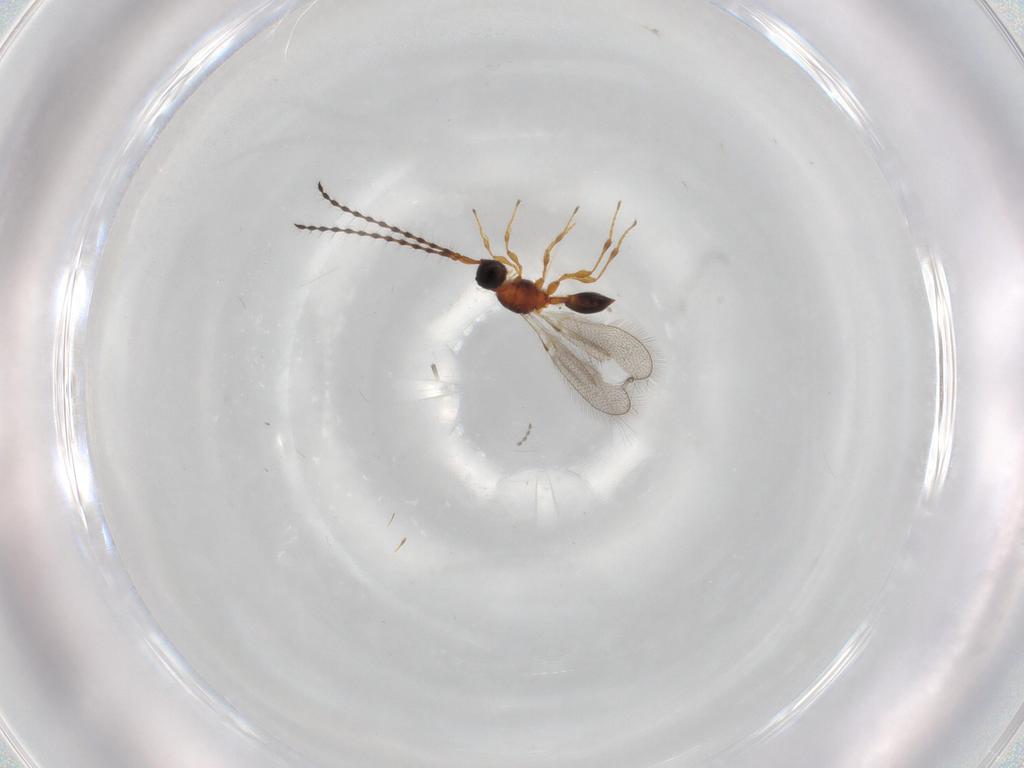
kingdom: Animalia
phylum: Arthropoda
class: Insecta
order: Hymenoptera
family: Diapriidae
